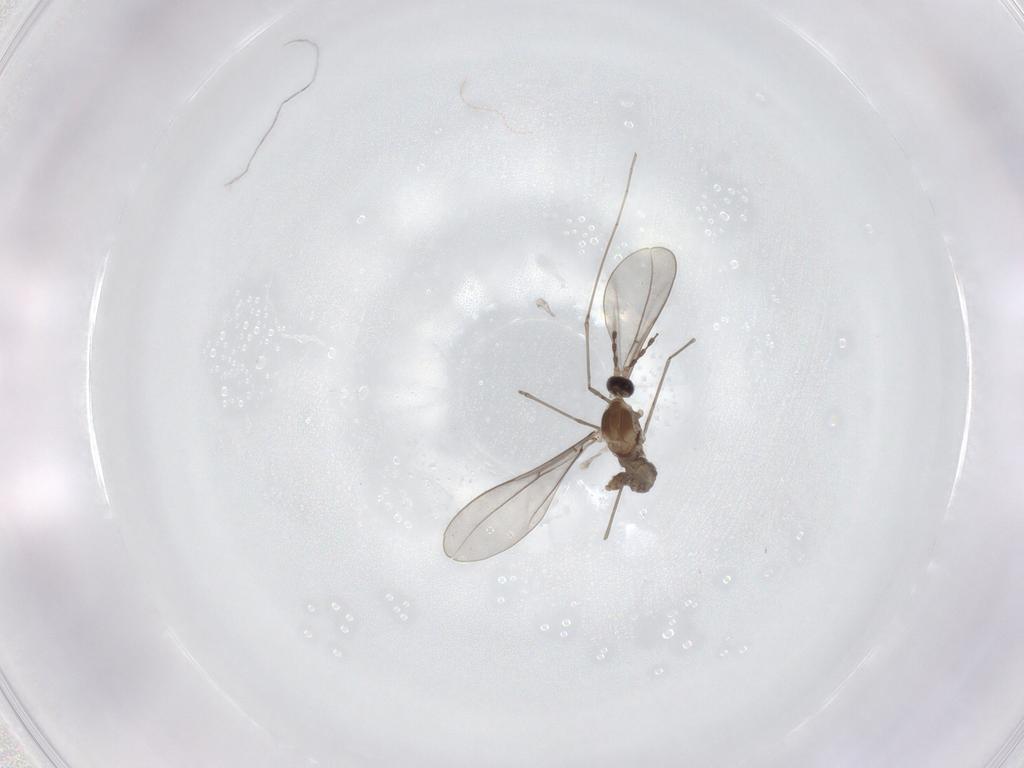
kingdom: Animalia
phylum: Arthropoda
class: Insecta
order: Diptera
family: Cecidomyiidae
